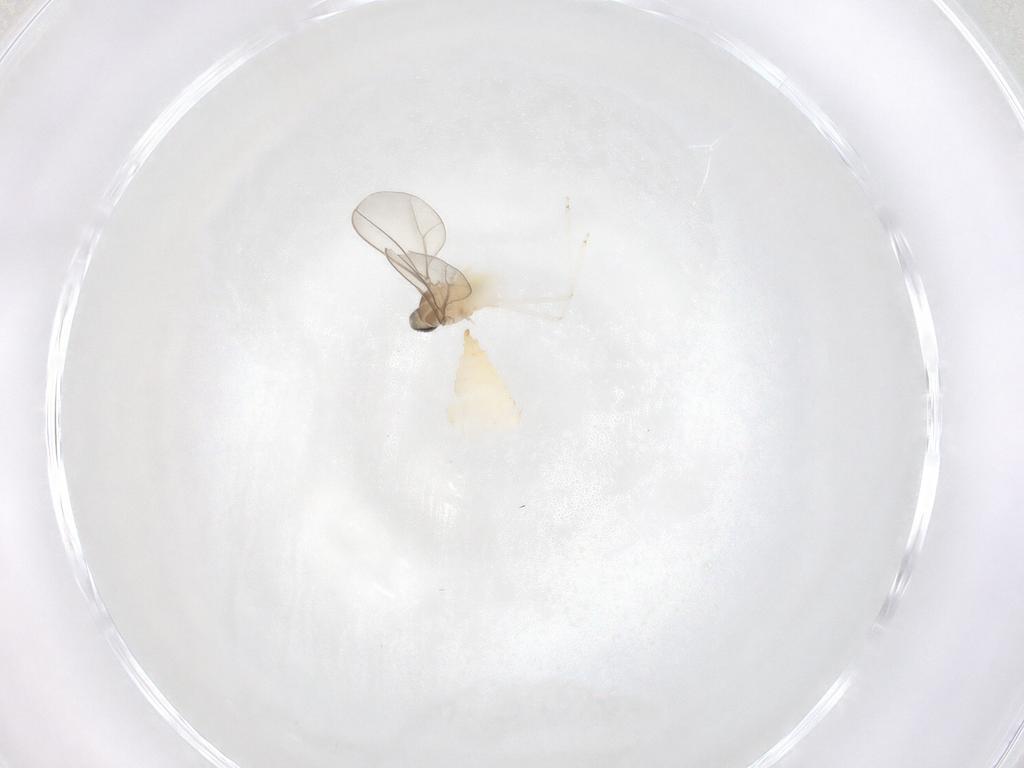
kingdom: Animalia
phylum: Arthropoda
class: Insecta
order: Diptera
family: Cecidomyiidae
